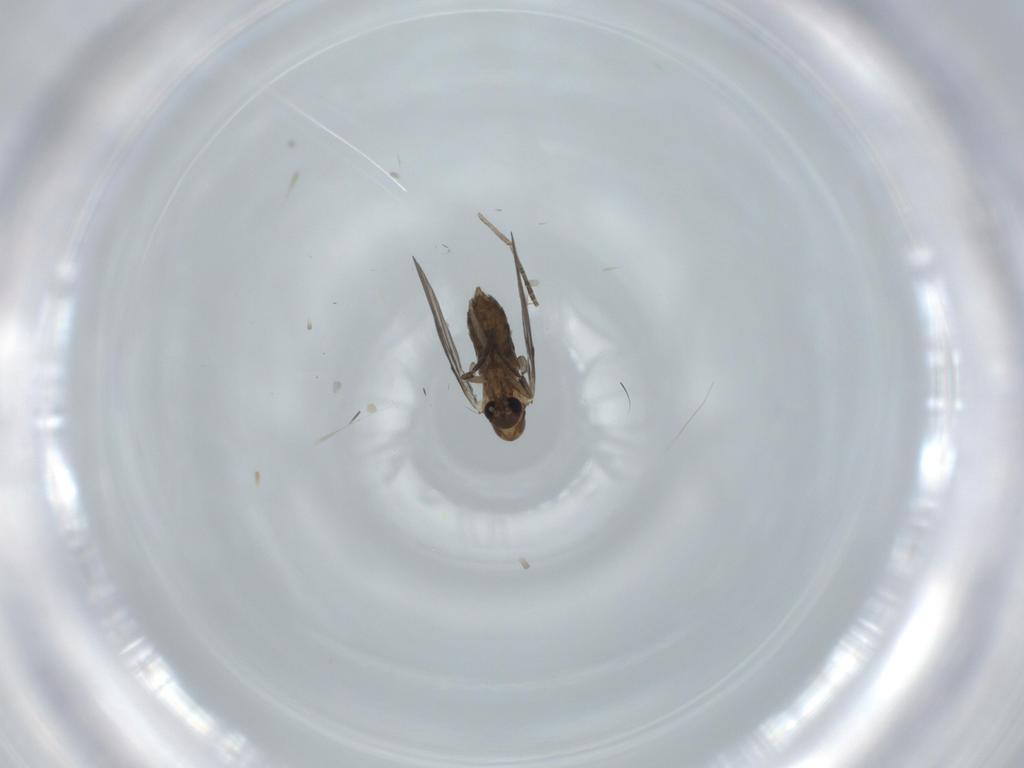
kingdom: Animalia
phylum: Arthropoda
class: Insecta
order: Diptera
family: Psychodidae
